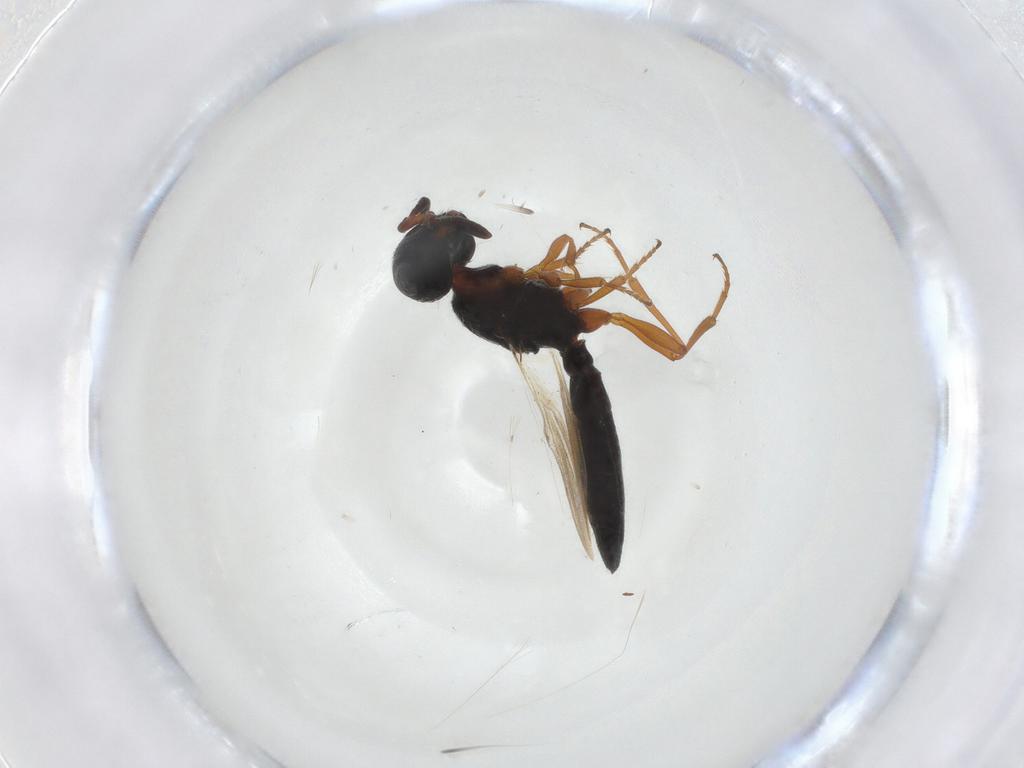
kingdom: Animalia
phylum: Arthropoda
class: Insecta
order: Hymenoptera
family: Scelionidae
